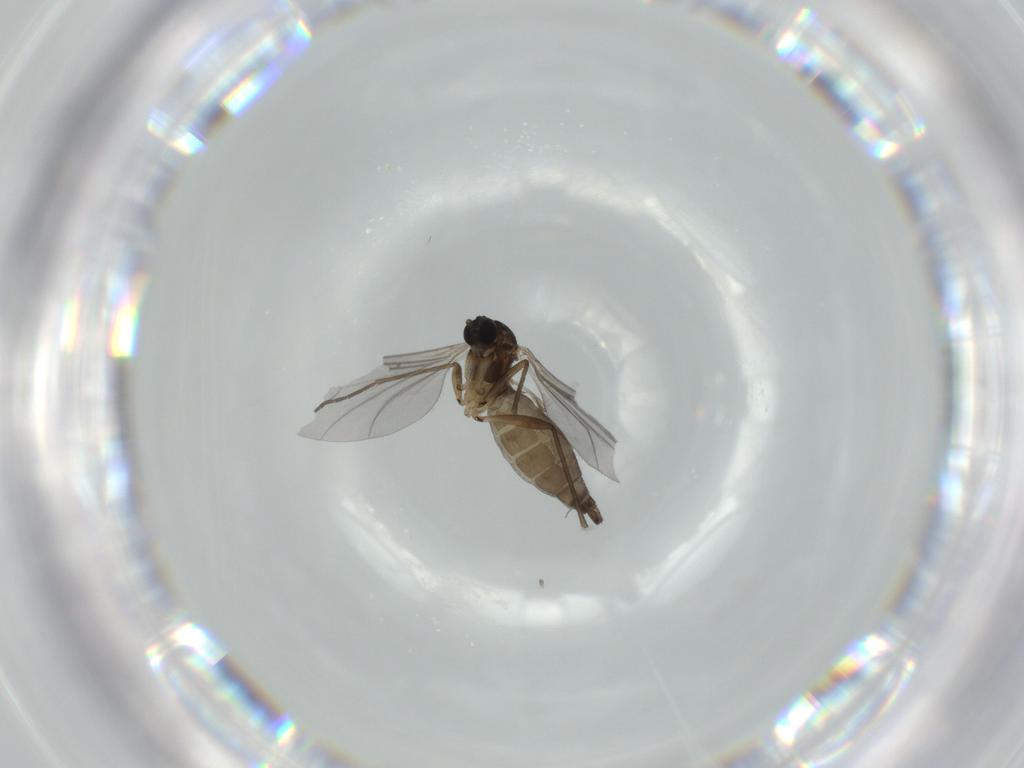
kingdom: Animalia
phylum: Arthropoda
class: Insecta
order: Diptera
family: Sciaridae
